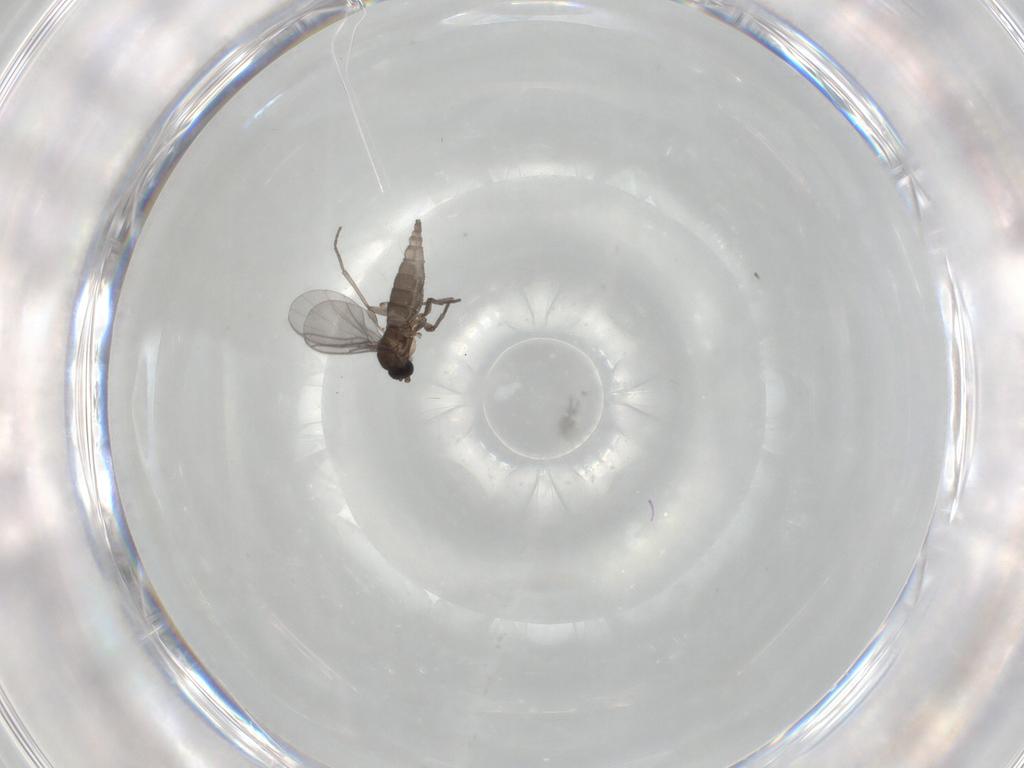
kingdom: Animalia
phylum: Arthropoda
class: Insecta
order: Diptera
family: Sciaridae
